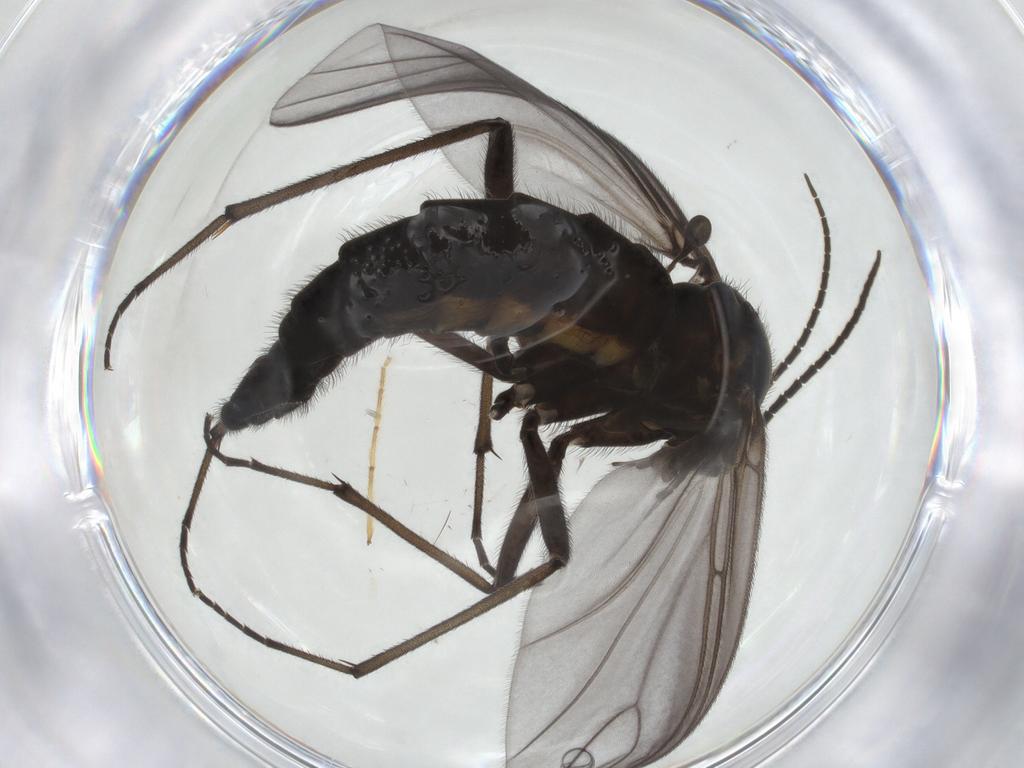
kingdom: Animalia
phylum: Arthropoda
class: Insecta
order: Diptera
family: Sciaridae
